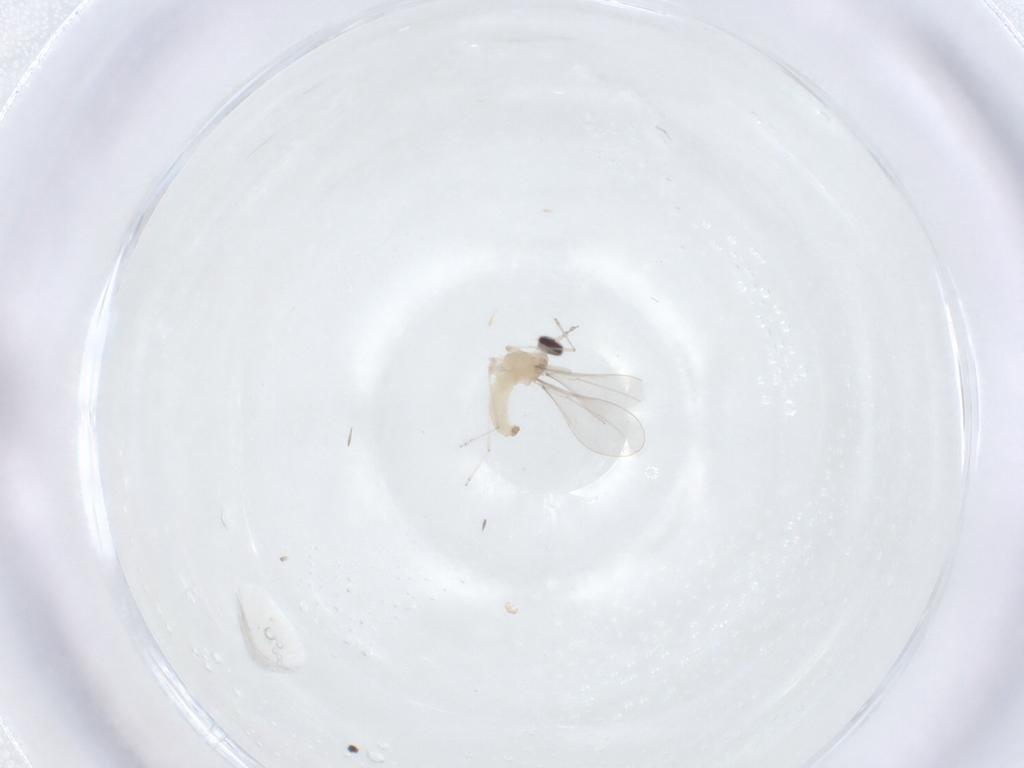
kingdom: Animalia
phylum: Arthropoda
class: Insecta
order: Diptera
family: Cecidomyiidae
